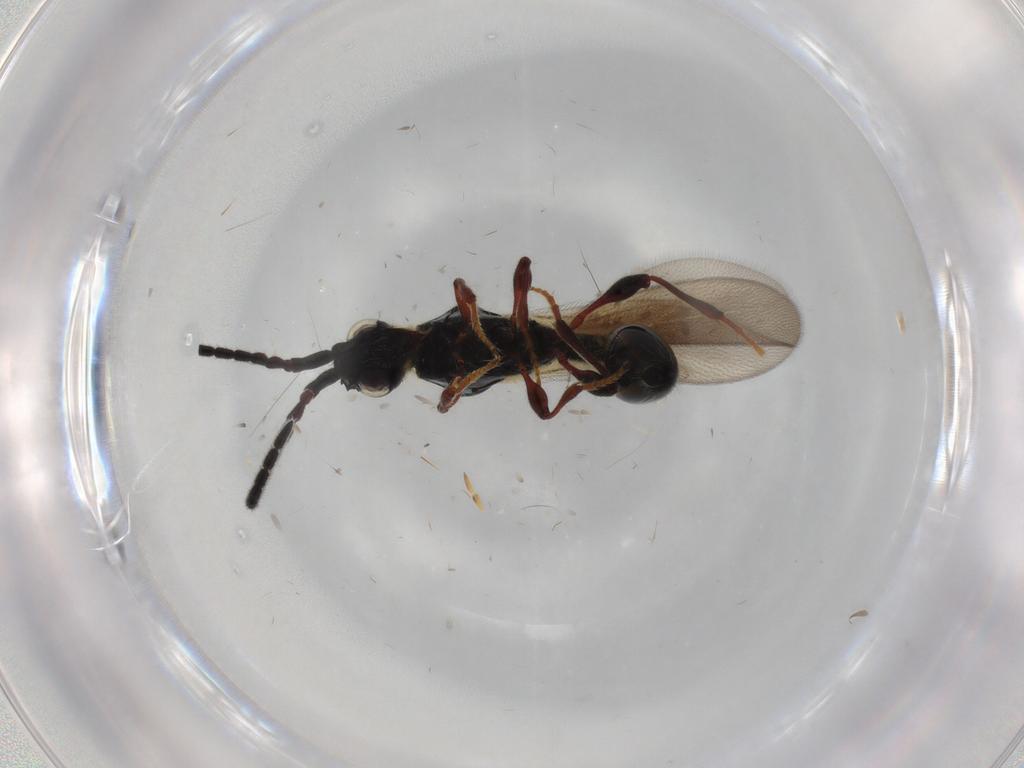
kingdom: Animalia
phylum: Arthropoda
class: Insecta
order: Hymenoptera
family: Diapriidae
